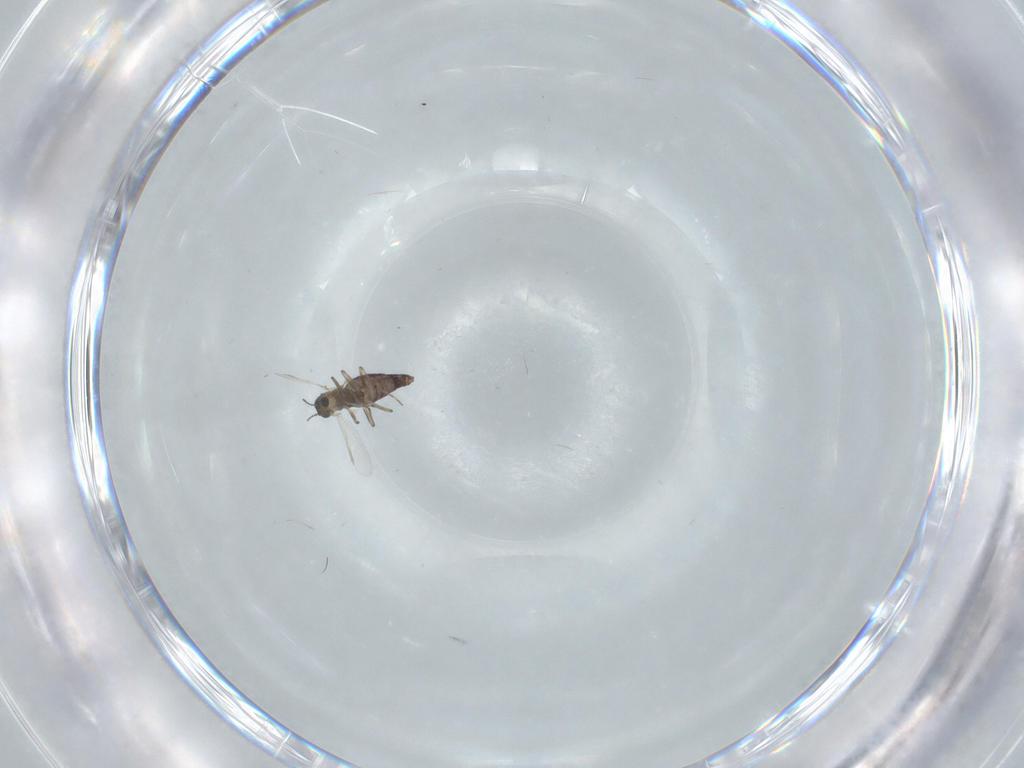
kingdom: Animalia
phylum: Arthropoda
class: Insecta
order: Diptera
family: Chironomidae
